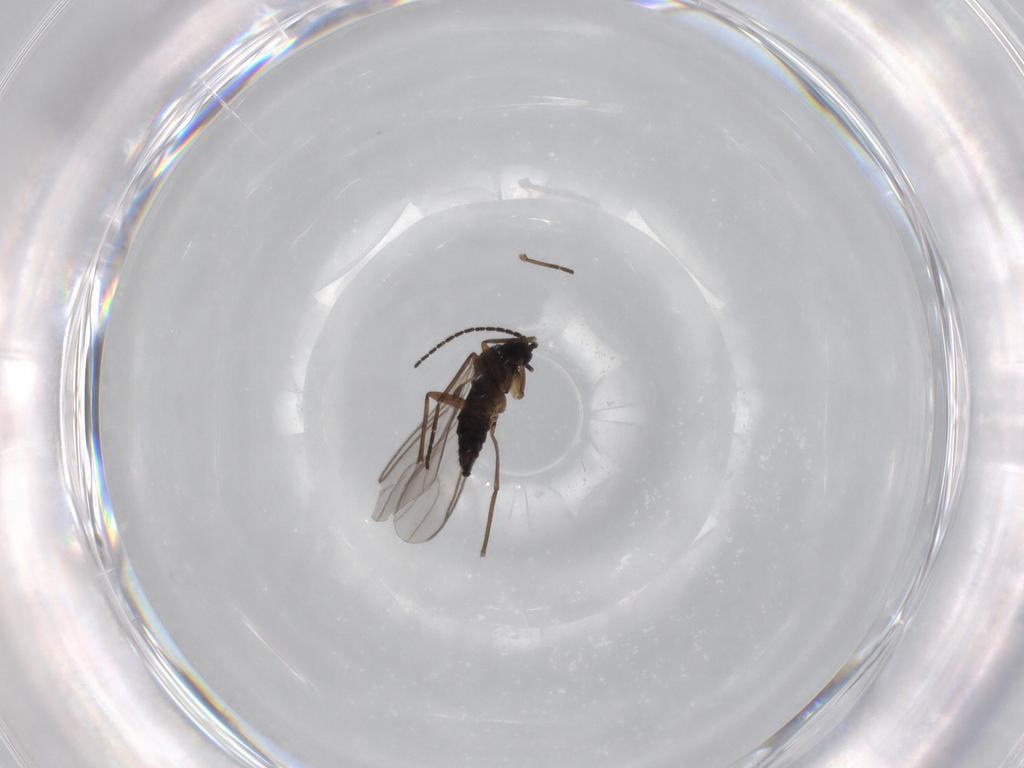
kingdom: Animalia
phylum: Arthropoda
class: Insecta
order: Diptera
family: Sciaridae
